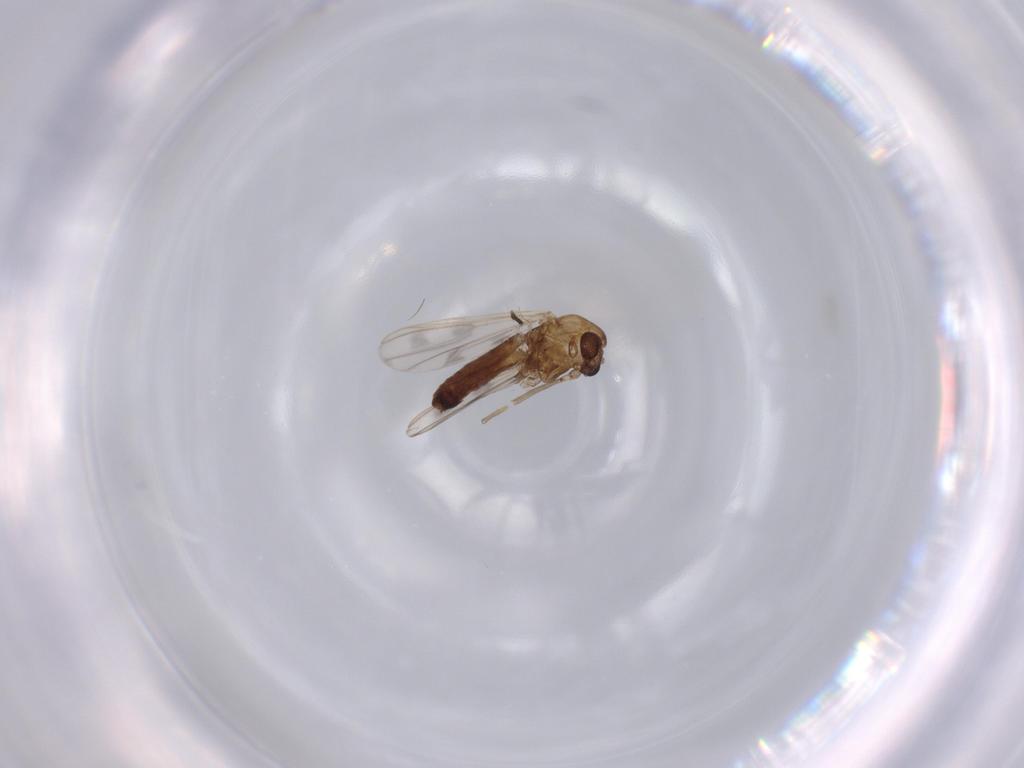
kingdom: Animalia
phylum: Arthropoda
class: Insecta
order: Diptera
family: Chironomidae
